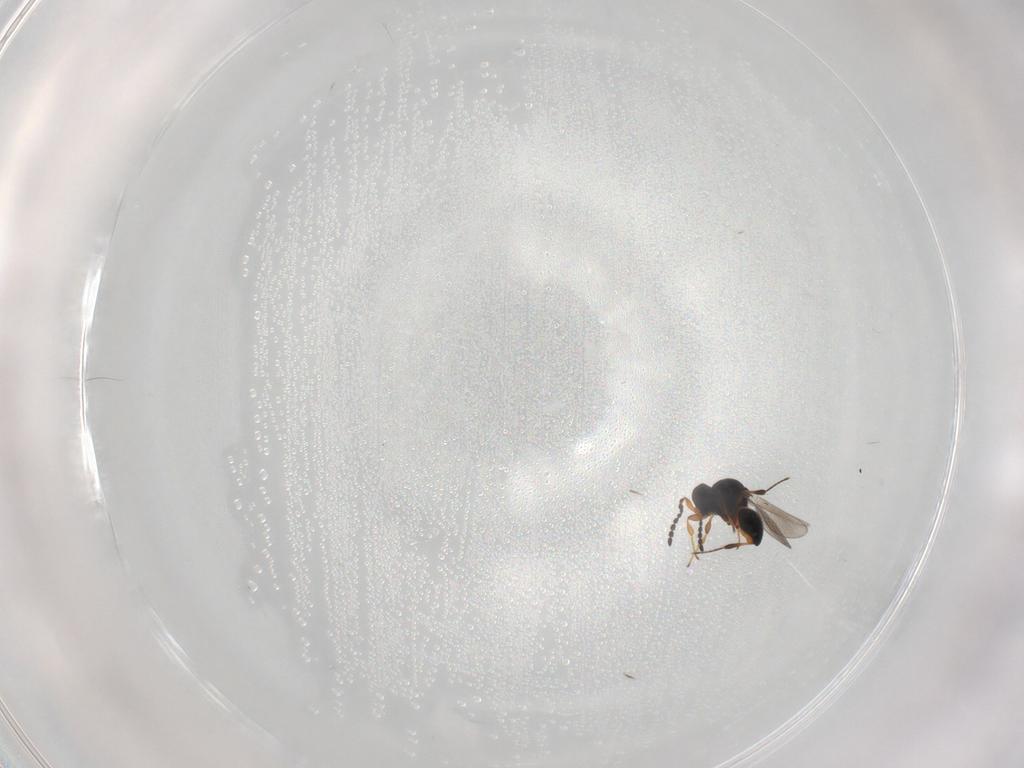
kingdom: Animalia
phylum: Arthropoda
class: Insecta
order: Hymenoptera
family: Platygastridae
